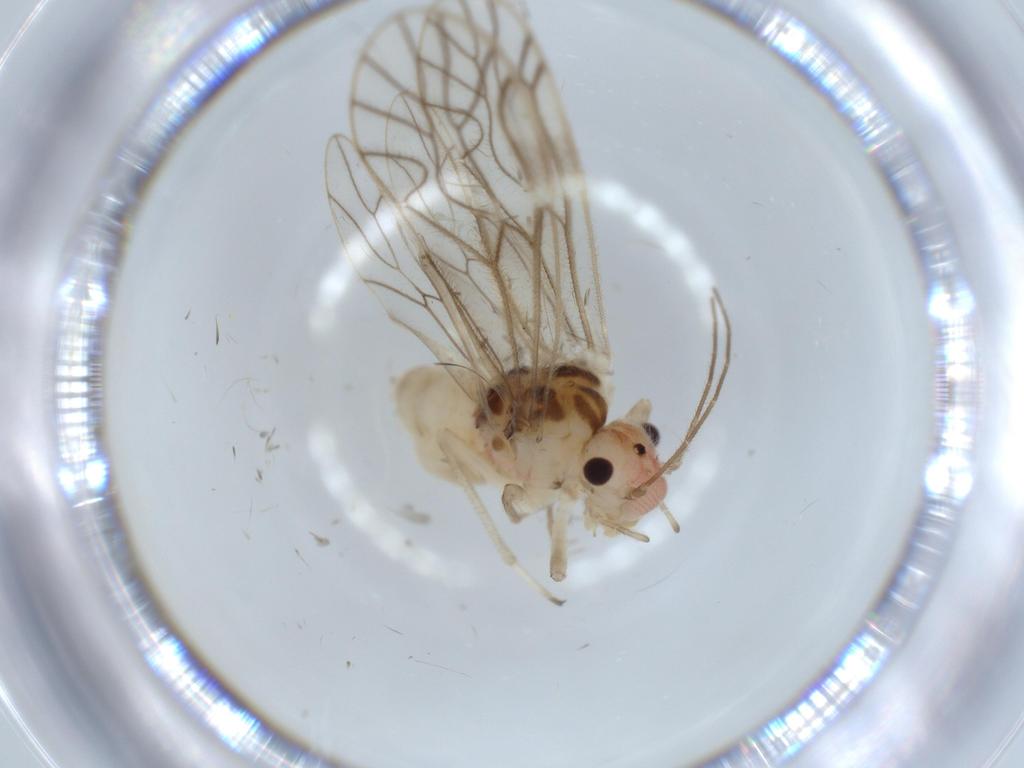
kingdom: Animalia
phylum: Arthropoda
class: Insecta
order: Psocodea
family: Amphipsocidae
